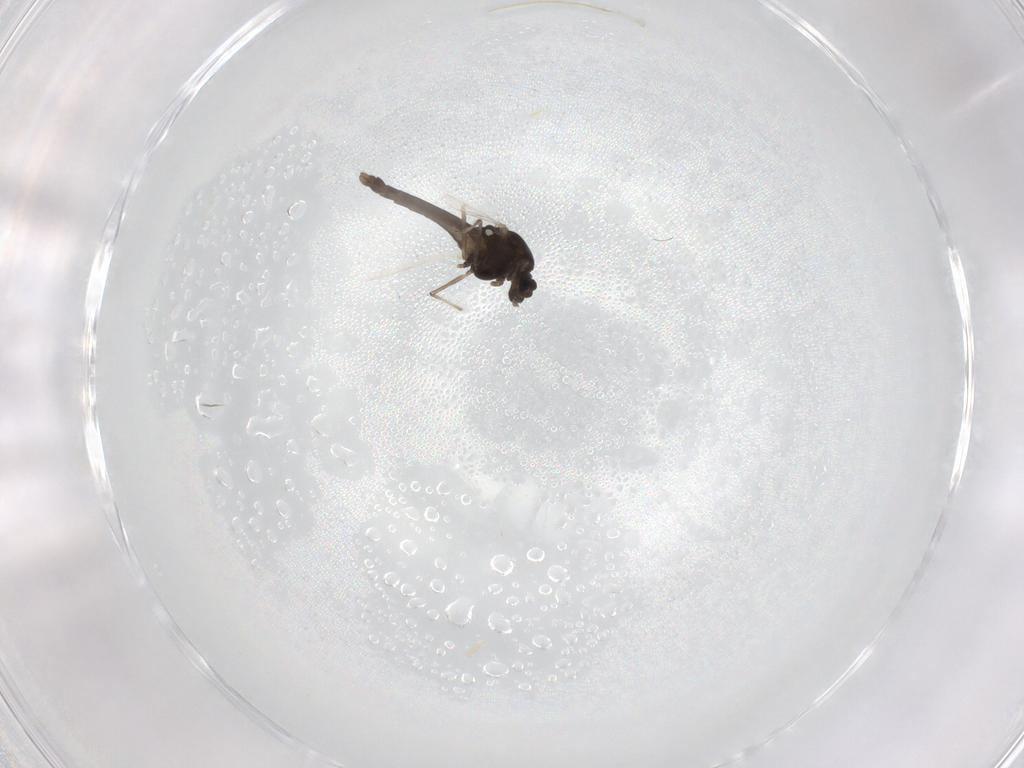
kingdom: Animalia
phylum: Arthropoda
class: Insecta
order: Diptera
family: Chironomidae
